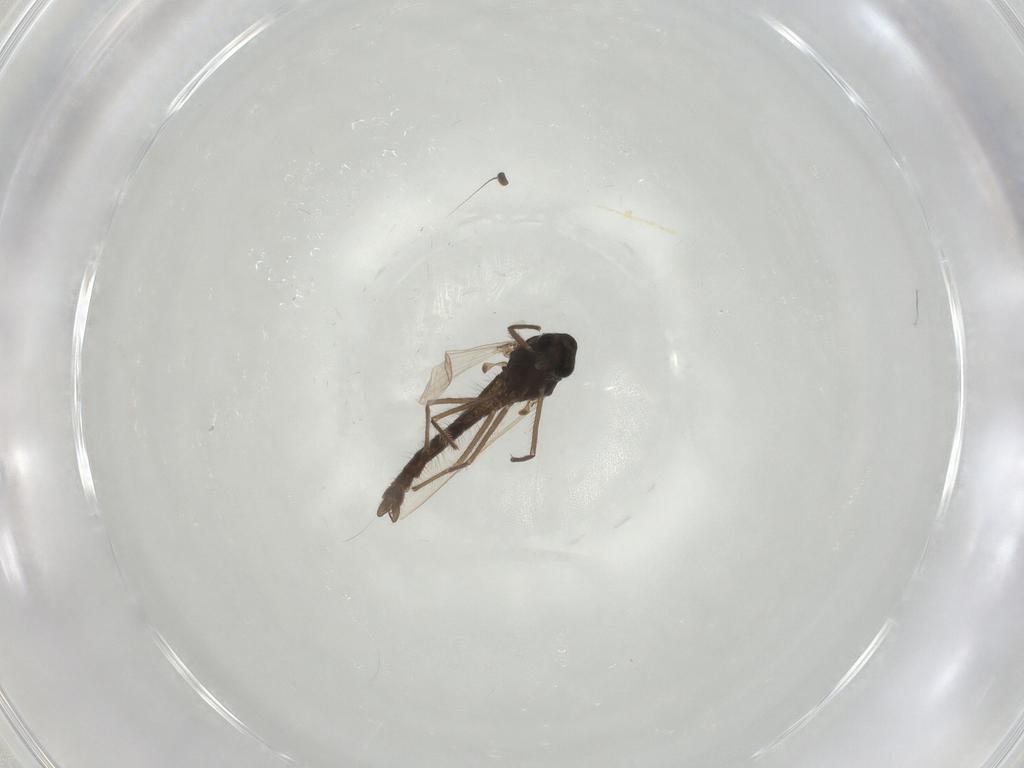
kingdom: Animalia
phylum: Arthropoda
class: Insecta
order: Diptera
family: Chironomidae
